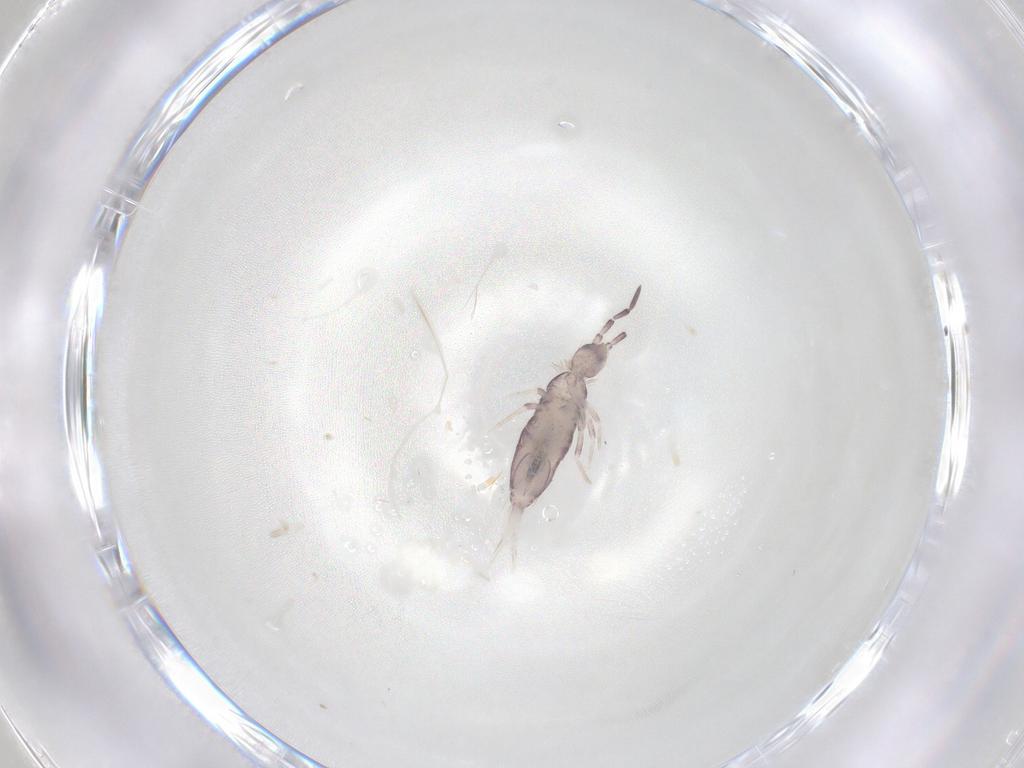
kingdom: Animalia
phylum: Arthropoda
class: Collembola
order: Poduromorpha
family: Hypogastruridae
